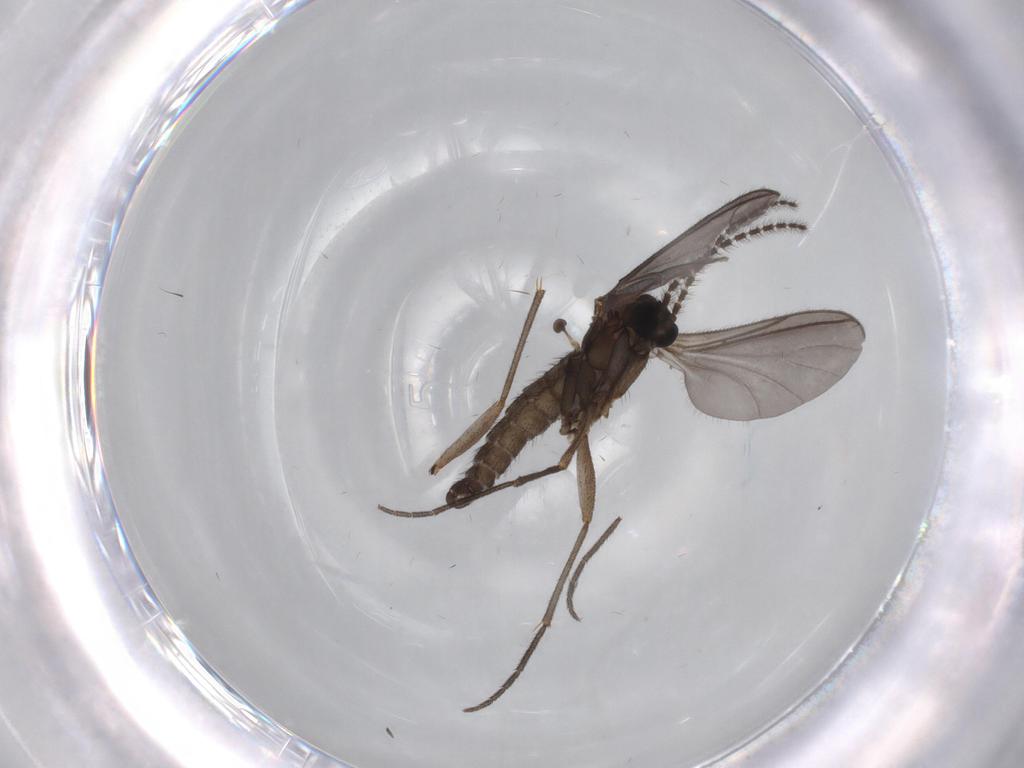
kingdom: Animalia
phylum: Arthropoda
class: Insecta
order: Diptera
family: Sciaridae
